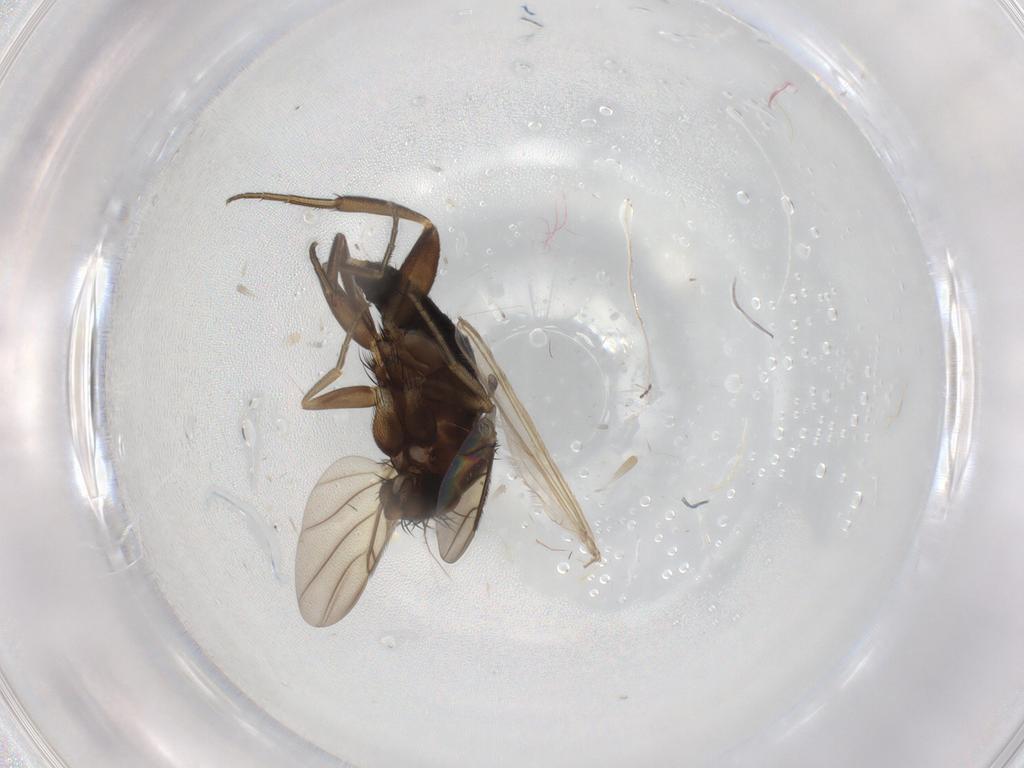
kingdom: Animalia
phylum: Arthropoda
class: Insecta
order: Diptera
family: Phoridae
